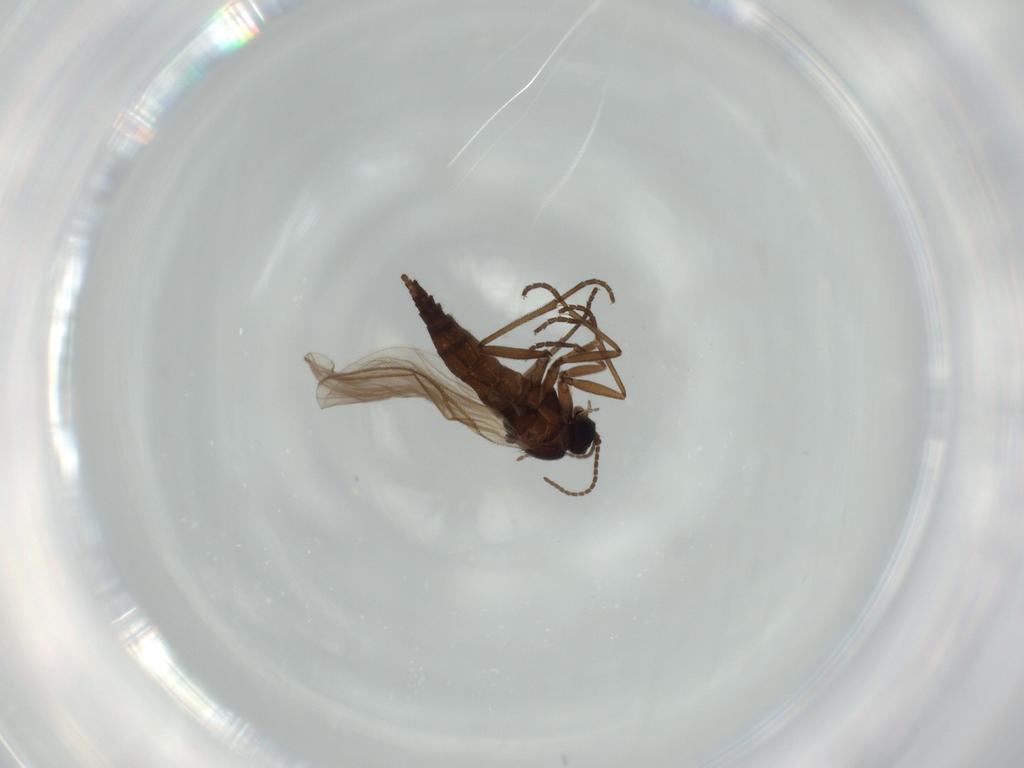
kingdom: Animalia
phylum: Arthropoda
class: Insecta
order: Diptera
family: Sciaridae
